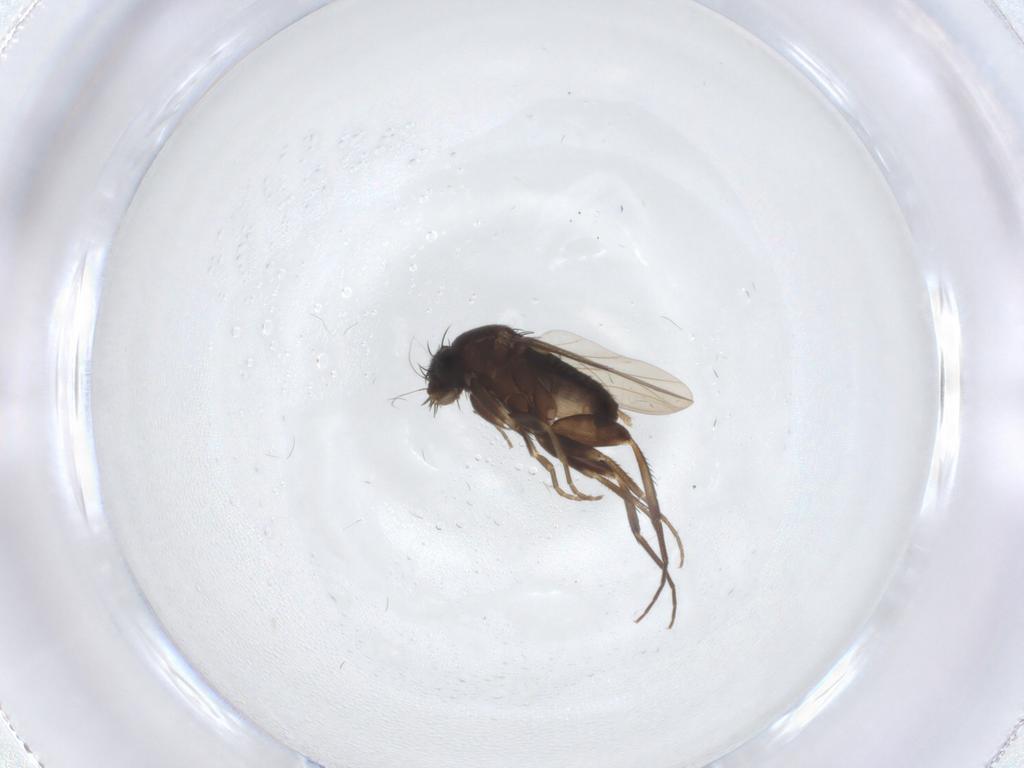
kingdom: Animalia
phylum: Arthropoda
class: Insecta
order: Diptera
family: Phoridae
